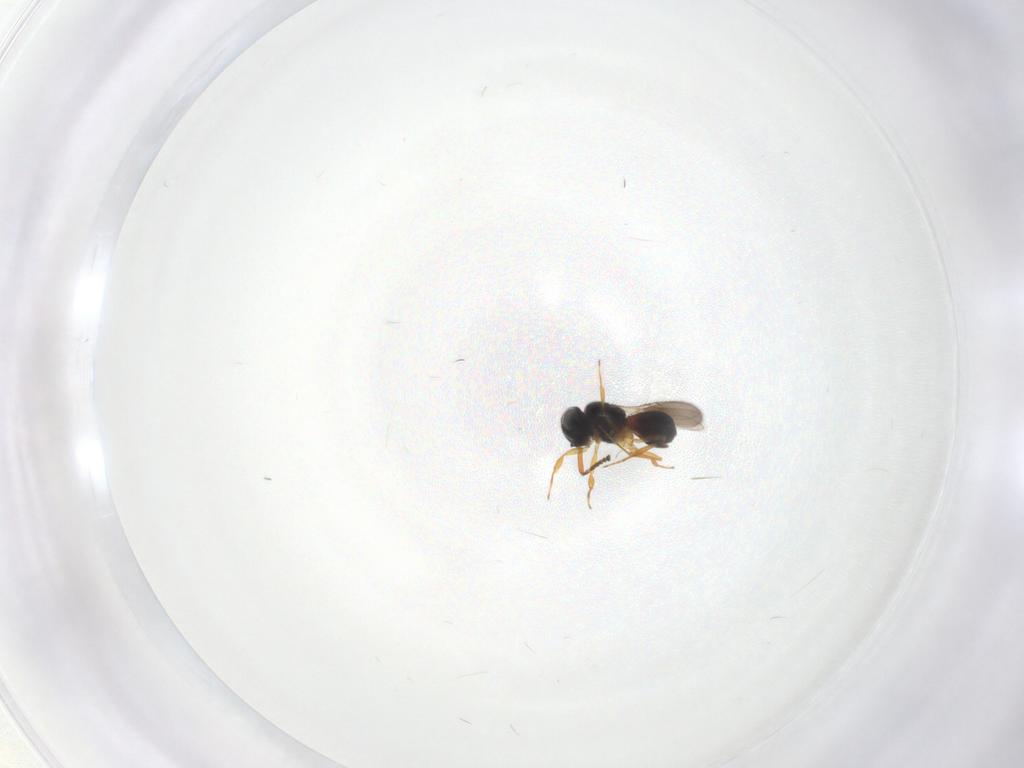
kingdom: Animalia
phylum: Arthropoda
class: Insecta
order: Hymenoptera
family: Scelionidae
